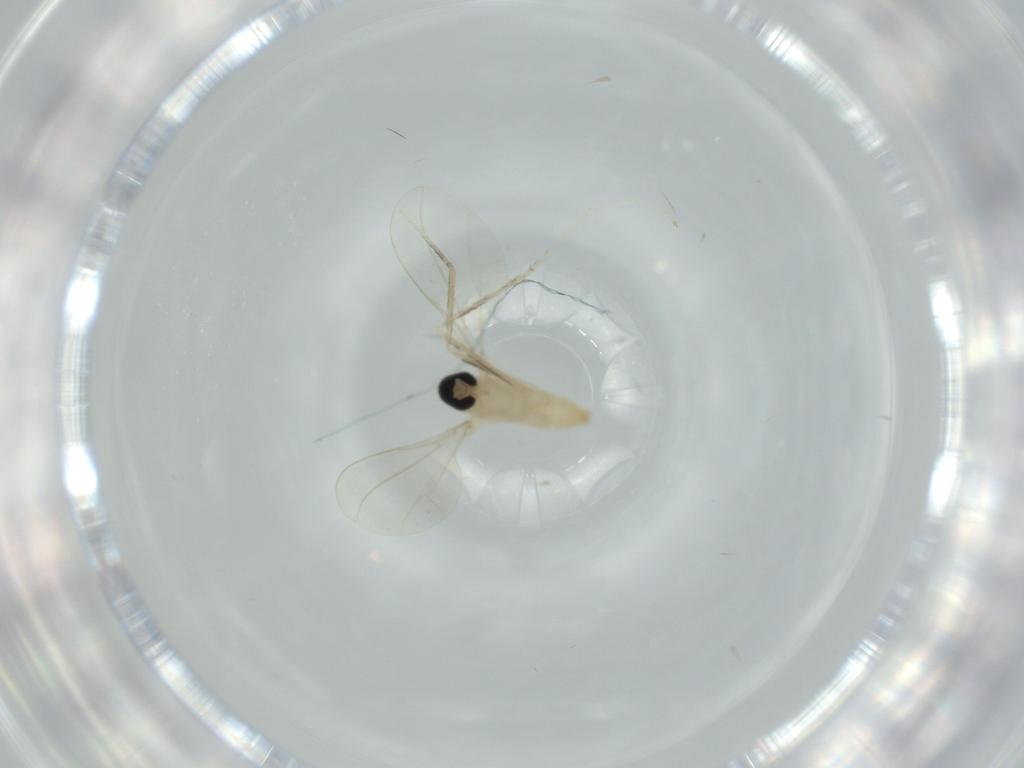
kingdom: Animalia
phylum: Arthropoda
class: Insecta
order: Diptera
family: Cecidomyiidae
